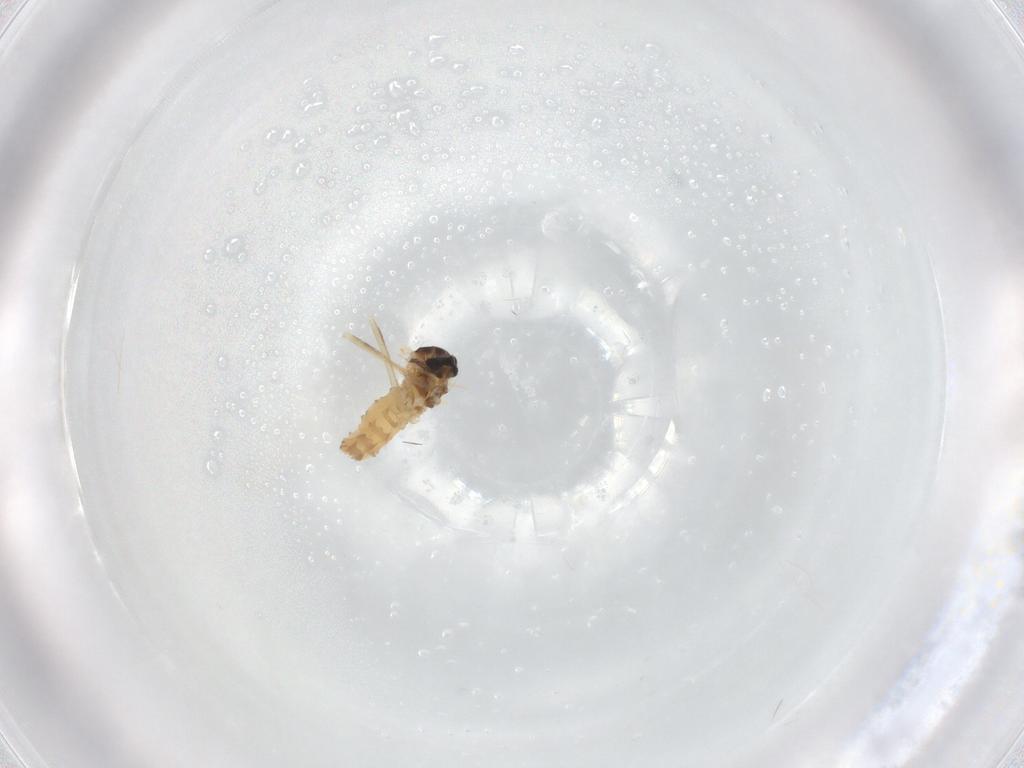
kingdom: Animalia
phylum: Arthropoda
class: Insecta
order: Diptera
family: Cecidomyiidae
